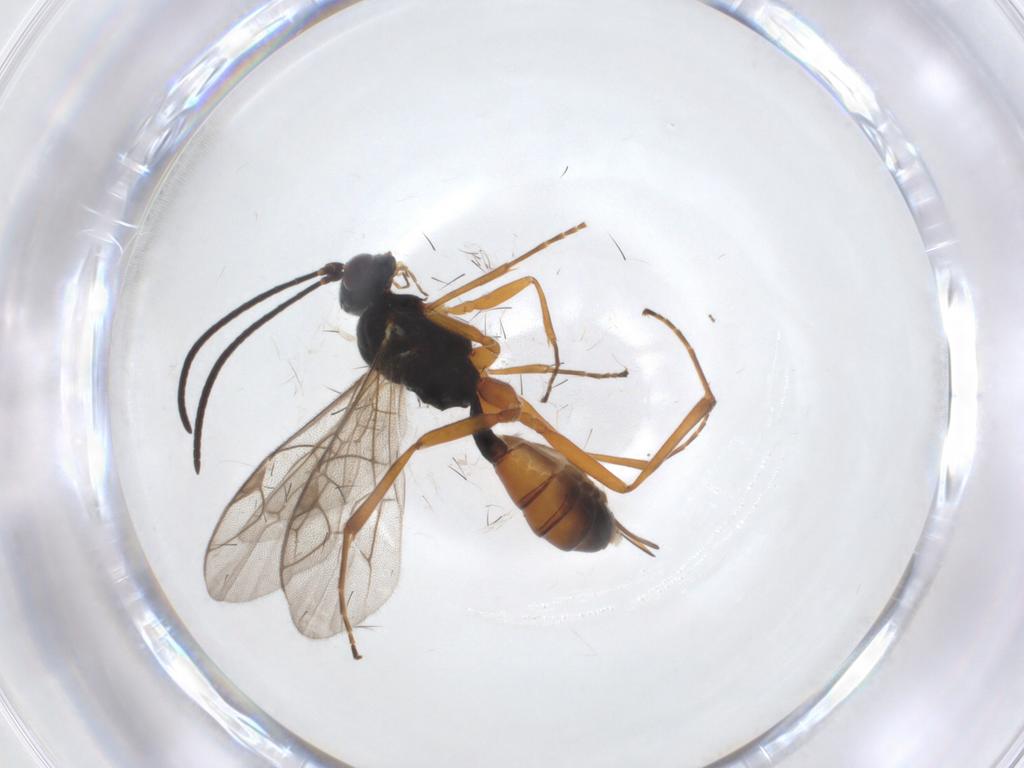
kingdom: Animalia
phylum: Arthropoda
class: Insecta
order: Hymenoptera
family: Ichneumonidae
